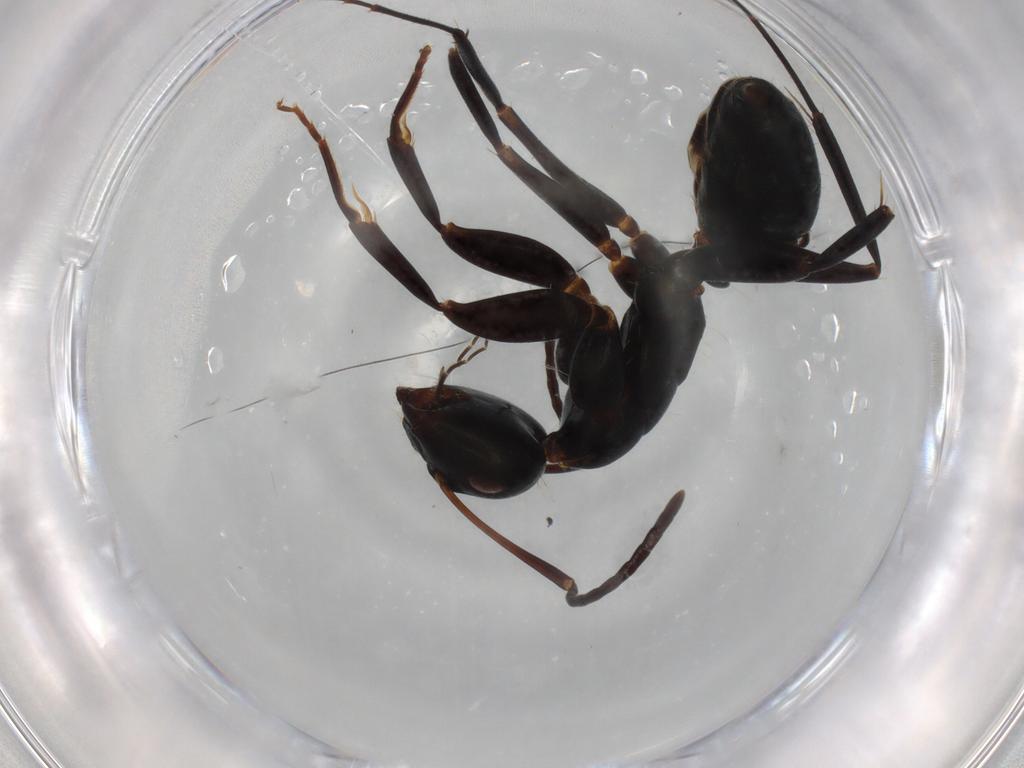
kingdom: Animalia
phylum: Arthropoda
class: Insecta
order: Hymenoptera
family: Formicidae
